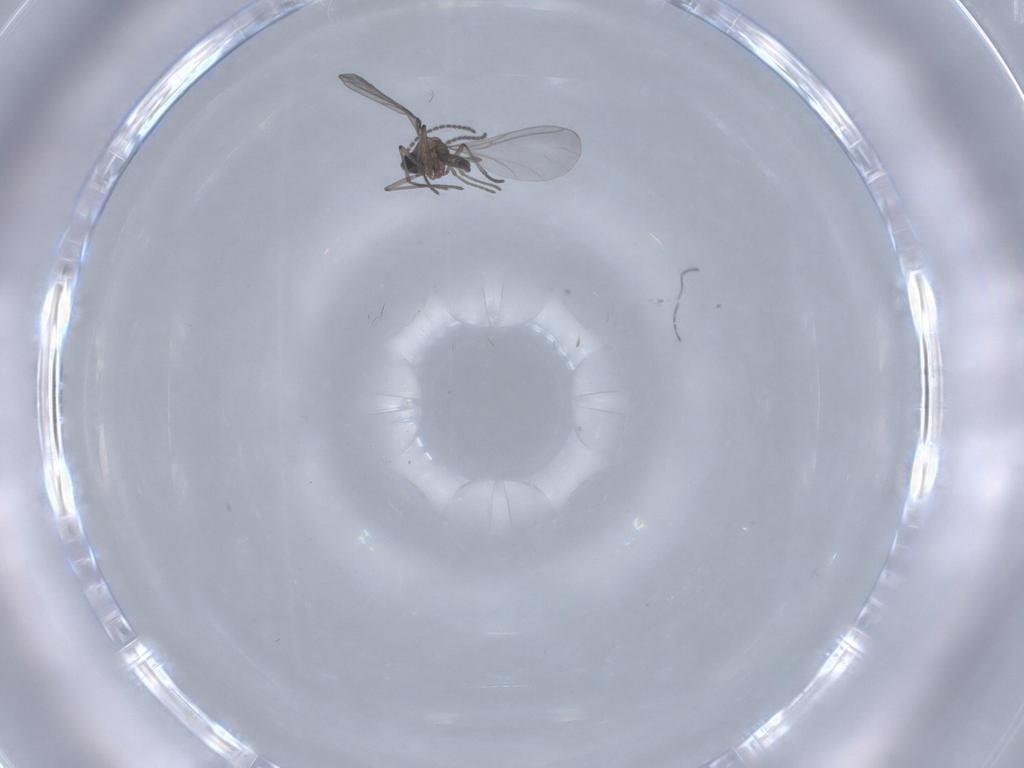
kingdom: Animalia
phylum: Arthropoda
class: Insecta
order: Diptera
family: Sciaridae
